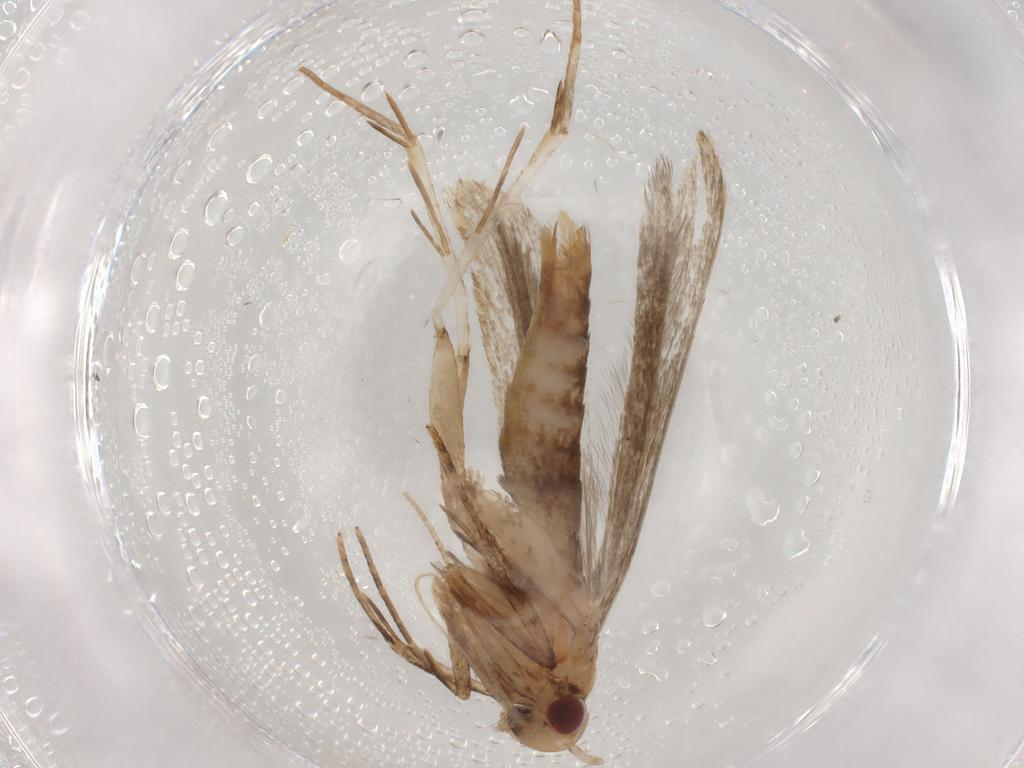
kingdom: Animalia
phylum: Arthropoda
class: Insecta
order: Lepidoptera
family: Gelechiidae
